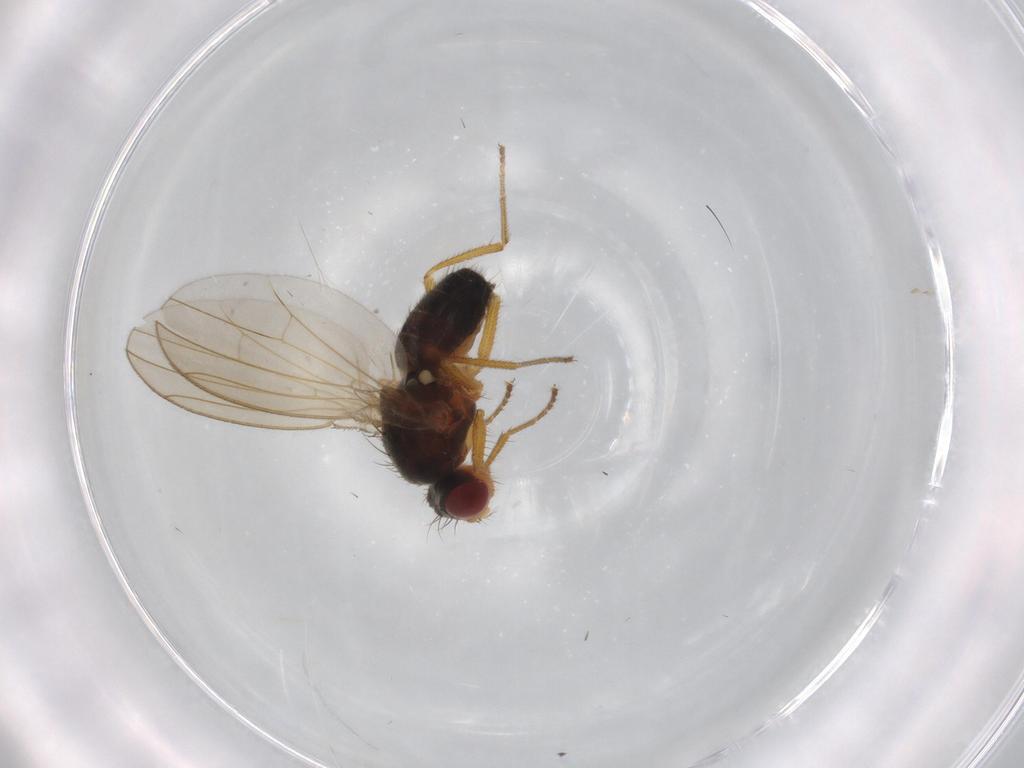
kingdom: Animalia
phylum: Arthropoda
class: Insecta
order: Diptera
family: Drosophilidae
